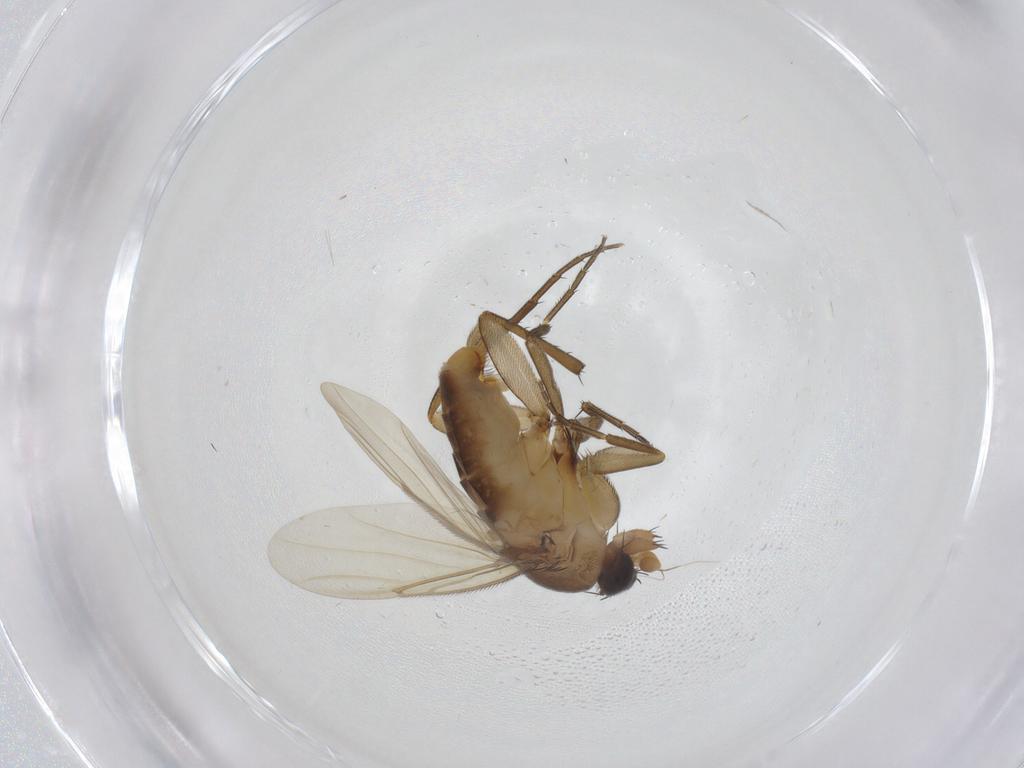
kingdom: Animalia
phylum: Arthropoda
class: Insecta
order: Diptera
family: Phoridae
